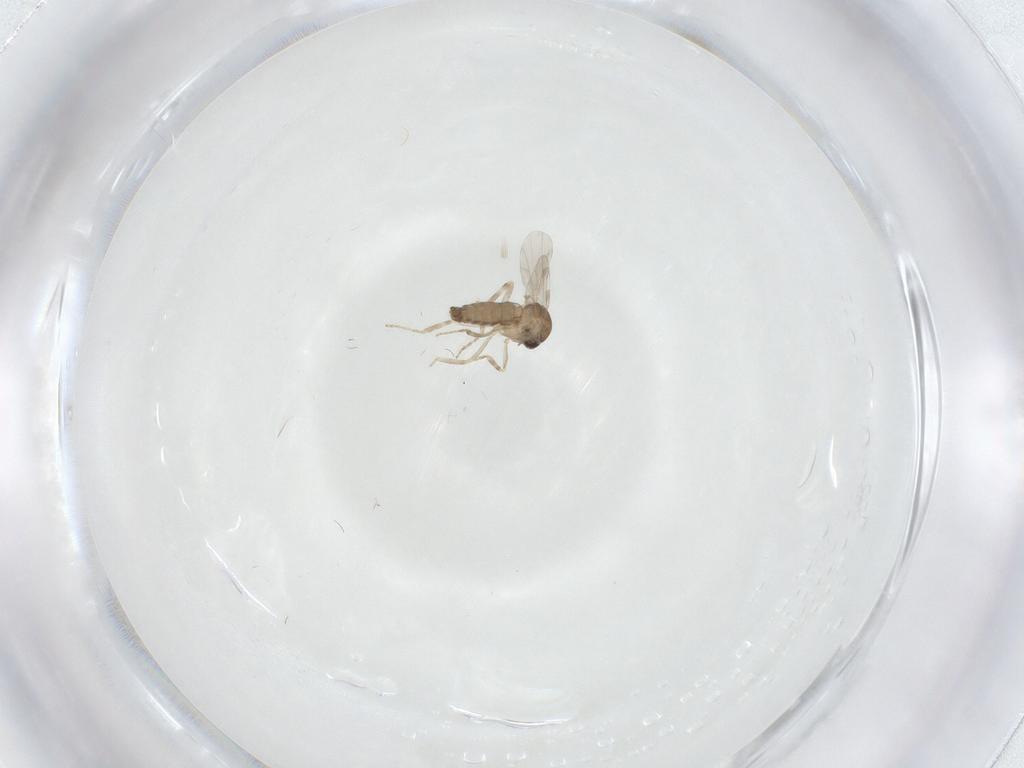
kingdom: Animalia
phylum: Arthropoda
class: Insecta
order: Diptera
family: Ceratopogonidae
